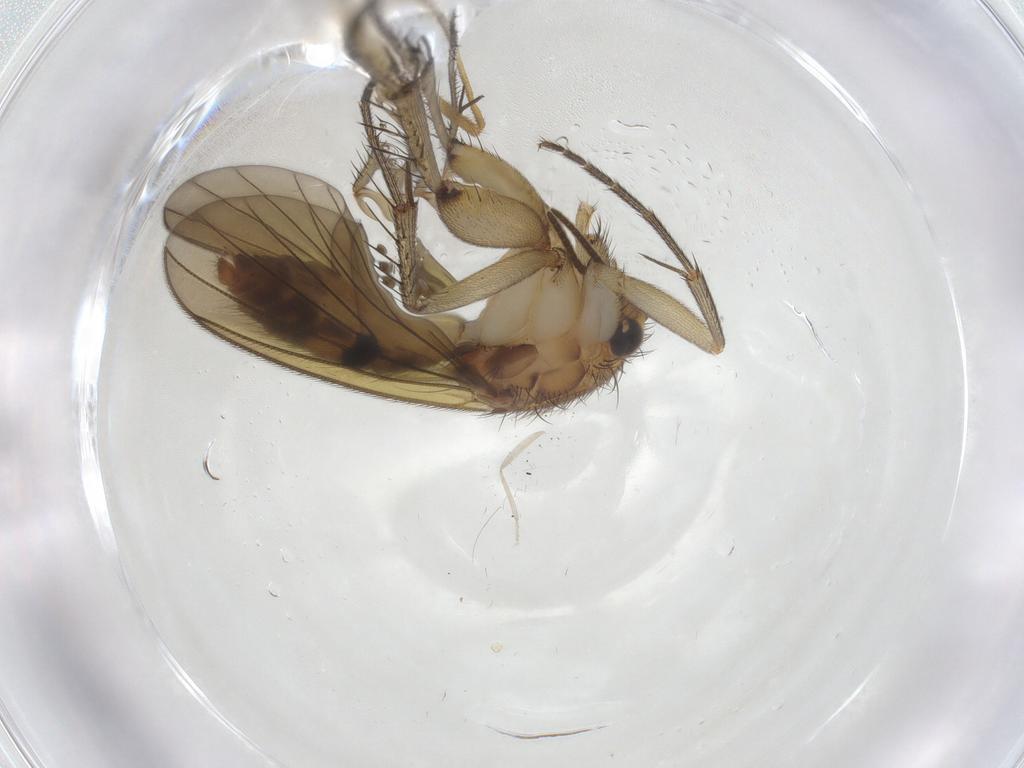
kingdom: Animalia
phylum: Arthropoda
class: Insecta
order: Diptera
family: Mycetophilidae
